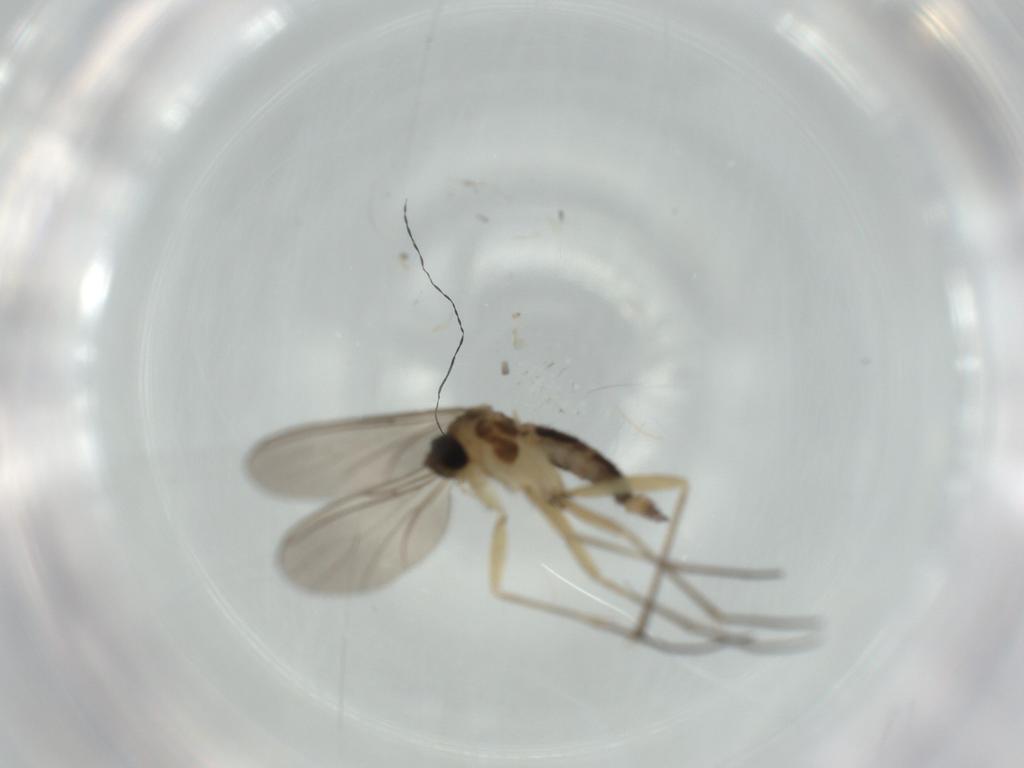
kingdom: Animalia
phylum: Arthropoda
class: Insecta
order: Diptera
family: Sciaridae
